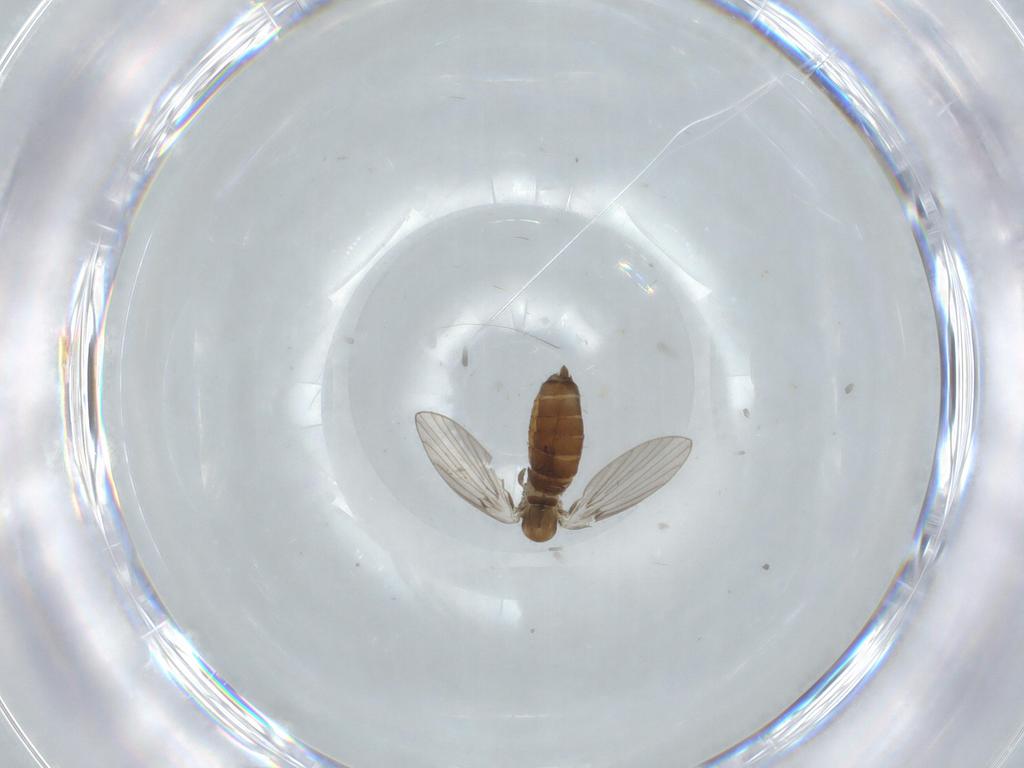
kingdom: Animalia
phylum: Arthropoda
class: Insecta
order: Diptera
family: Psychodidae
